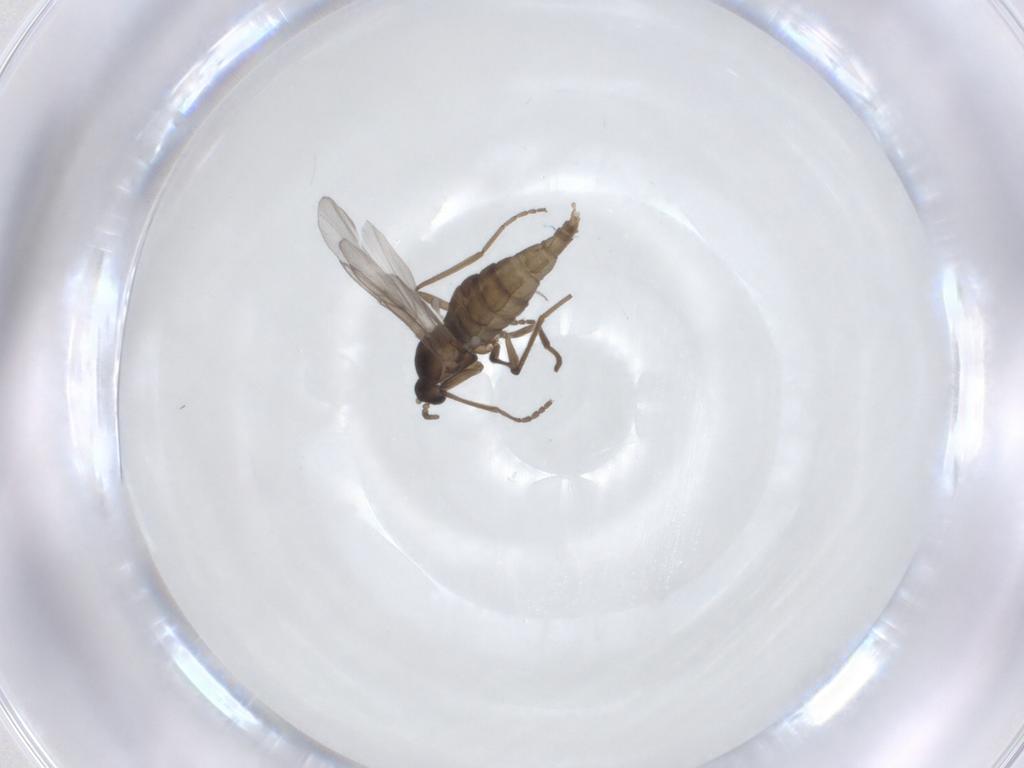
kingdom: Animalia
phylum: Arthropoda
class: Insecta
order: Diptera
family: Cecidomyiidae
